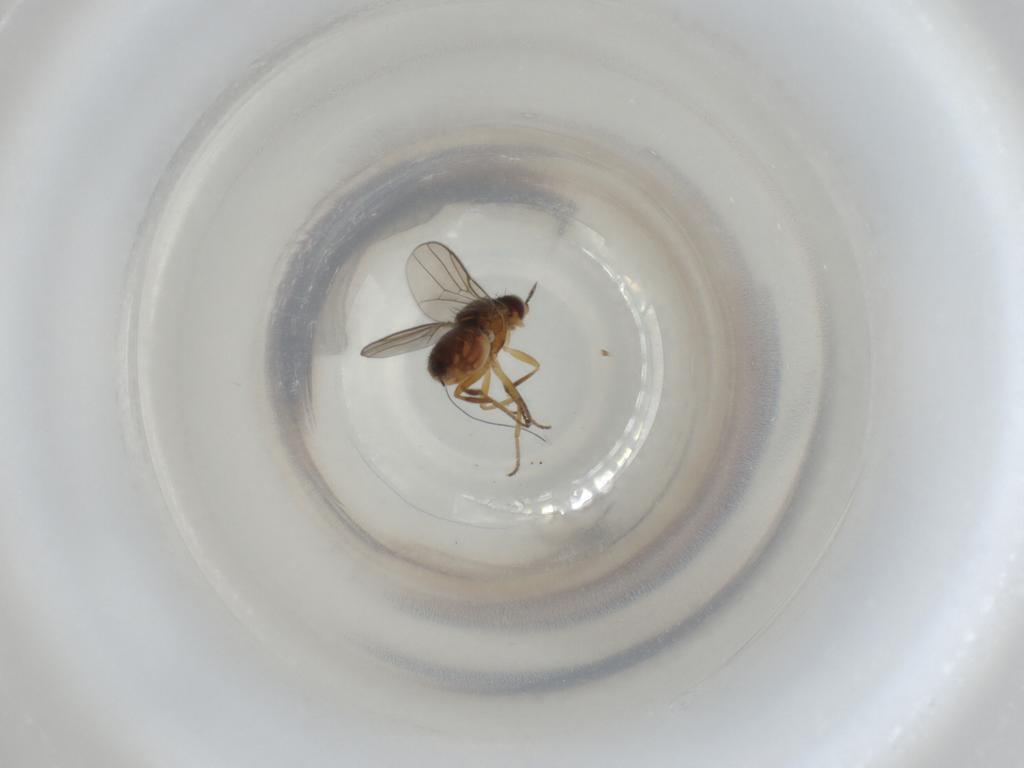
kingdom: Animalia
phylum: Arthropoda
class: Insecta
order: Diptera
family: Chloropidae
